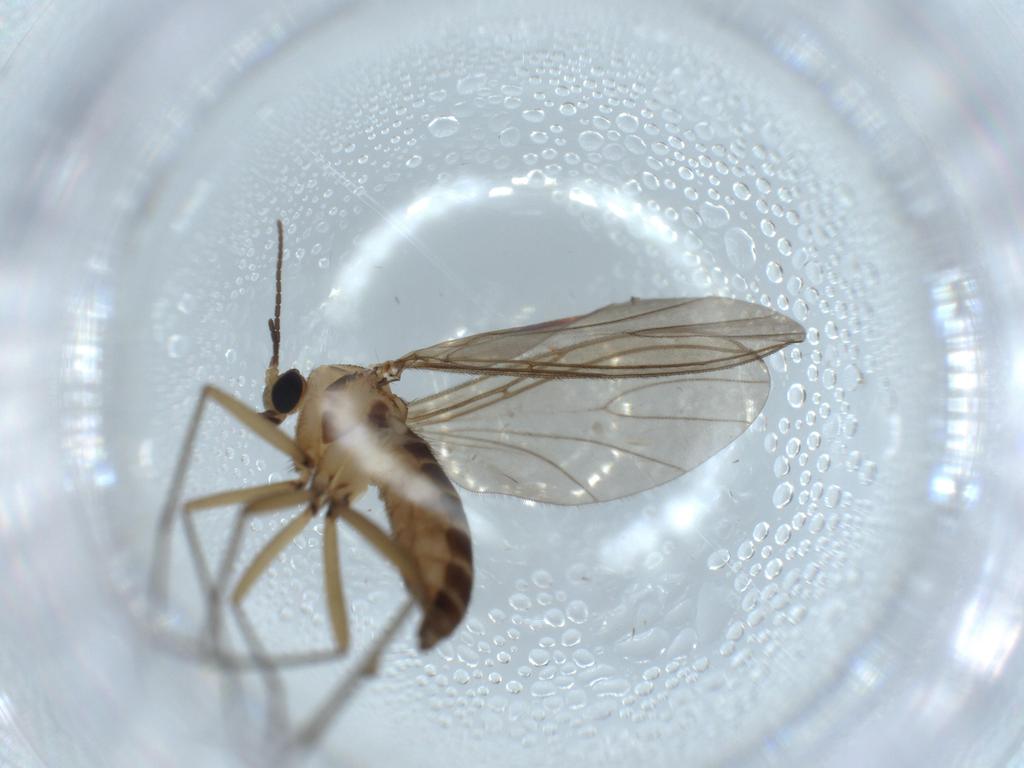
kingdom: Animalia
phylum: Arthropoda
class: Insecta
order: Diptera
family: Sciaridae
